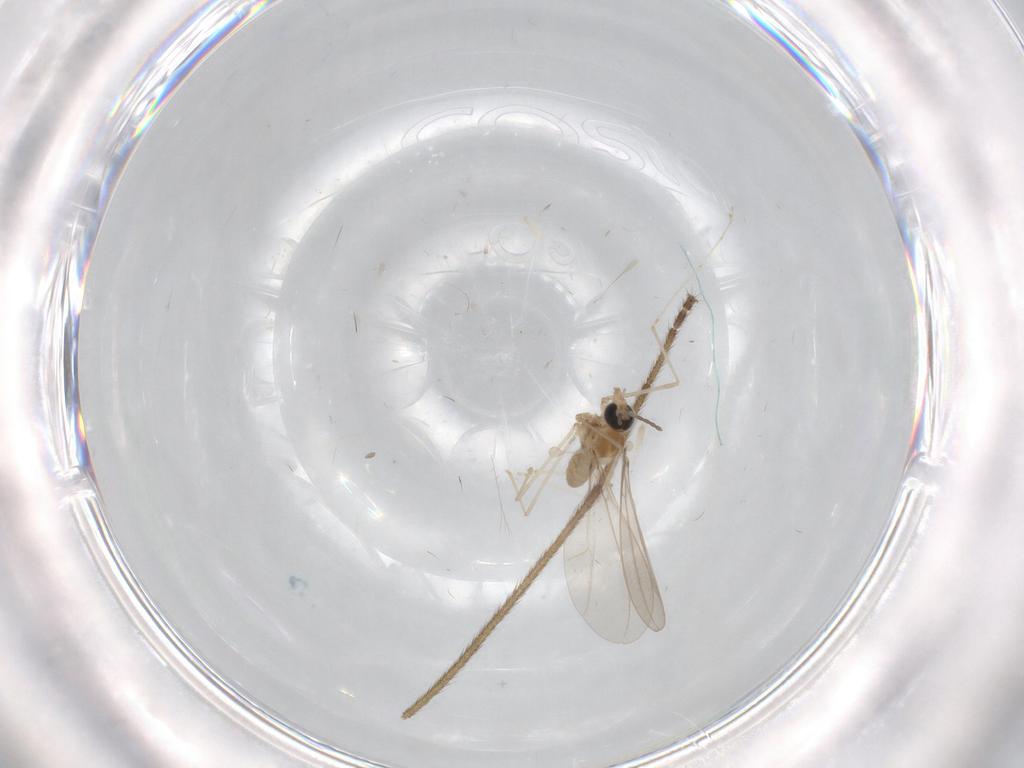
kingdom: Animalia
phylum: Arthropoda
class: Insecta
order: Diptera
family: Cecidomyiidae
